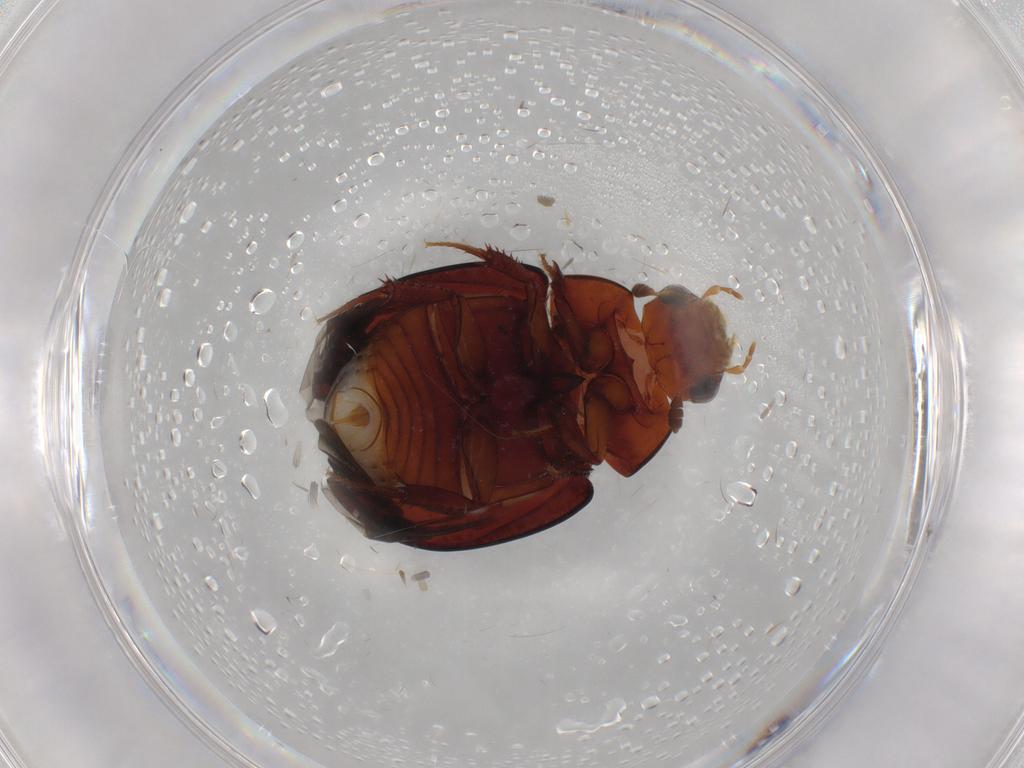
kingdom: Animalia
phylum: Arthropoda
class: Insecta
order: Coleoptera
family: Hydrophilidae
